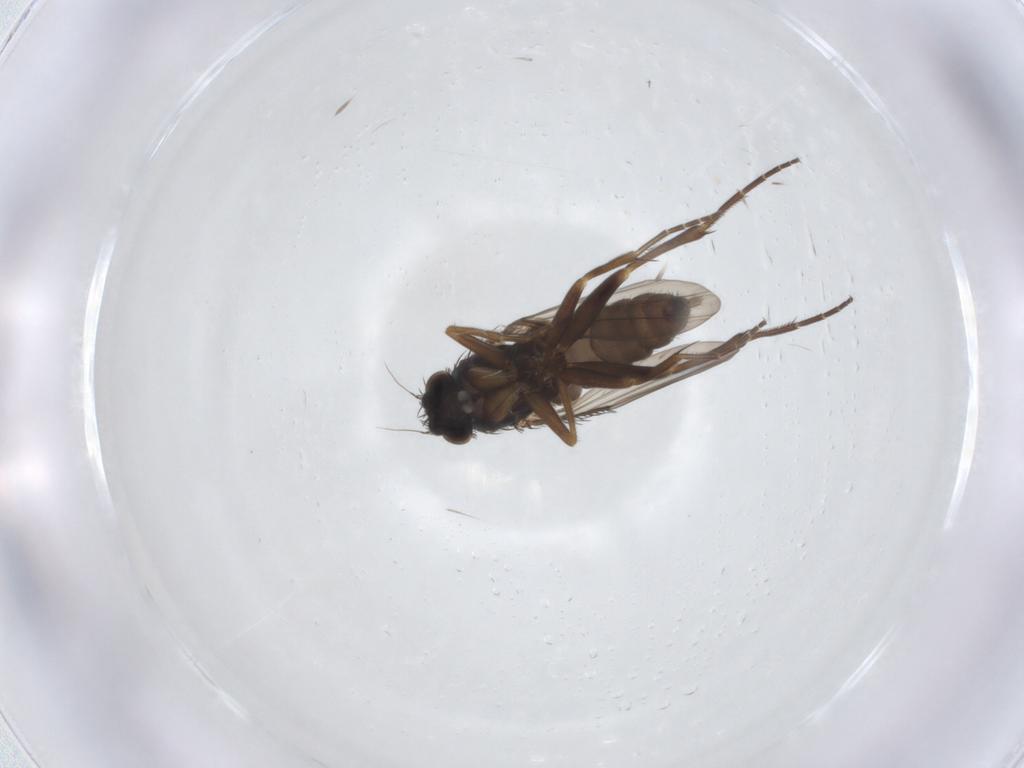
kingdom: Animalia
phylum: Arthropoda
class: Insecta
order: Diptera
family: Phoridae
